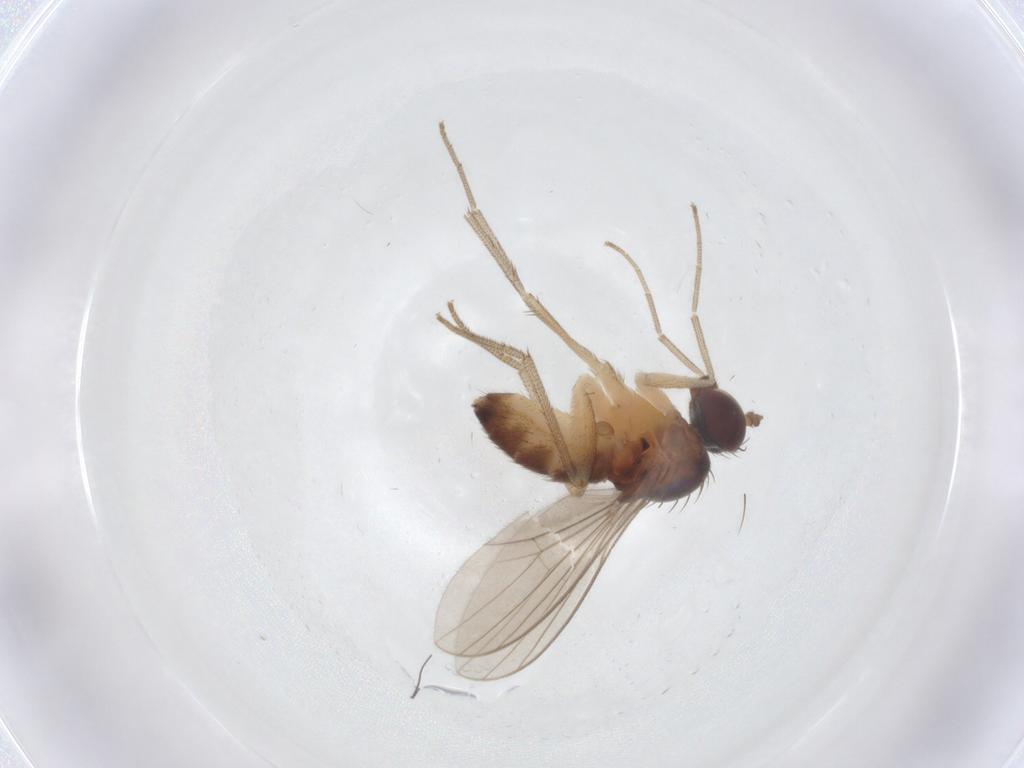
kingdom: Animalia
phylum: Arthropoda
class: Insecta
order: Diptera
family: Dolichopodidae
